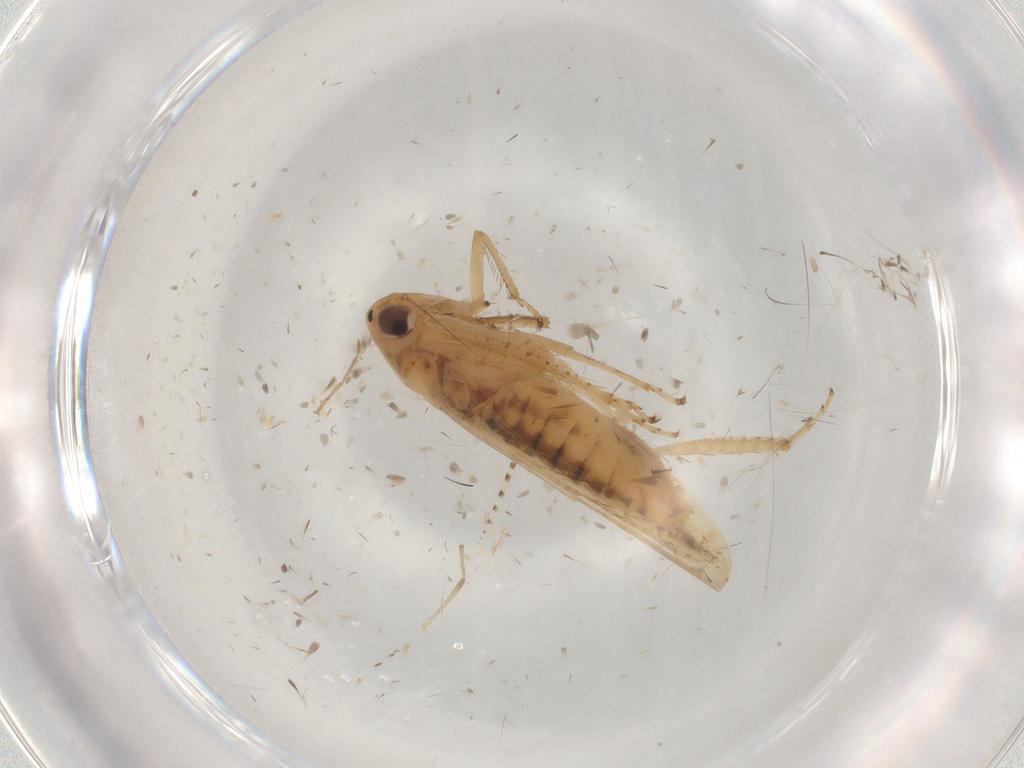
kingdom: Animalia
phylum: Arthropoda
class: Insecta
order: Hemiptera
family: Cicadellidae
